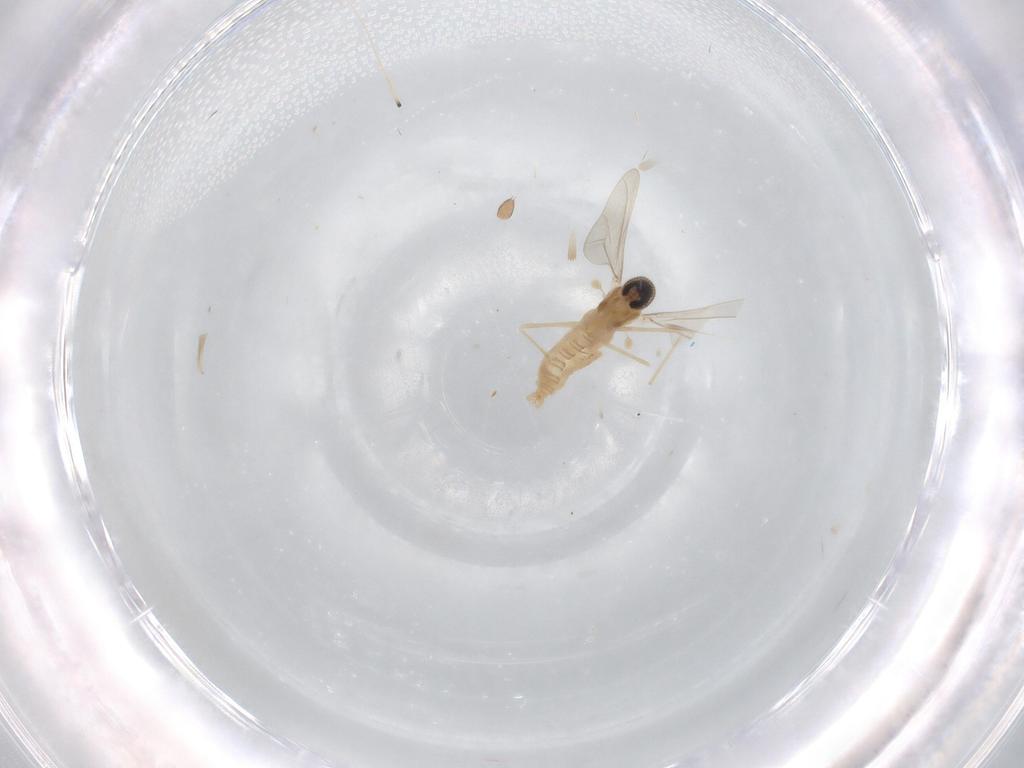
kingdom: Animalia
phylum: Arthropoda
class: Insecta
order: Diptera
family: Cecidomyiidae
